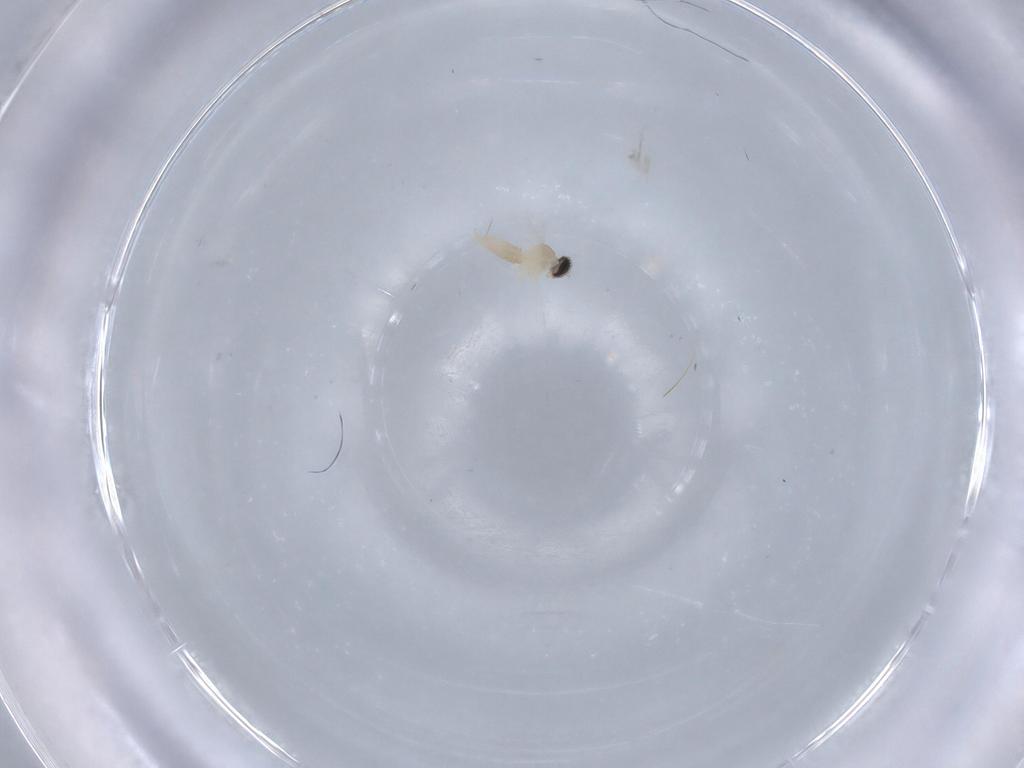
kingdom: Animalia
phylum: Arthropoda
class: Insecta
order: Diptera
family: Cecidomyiidae
